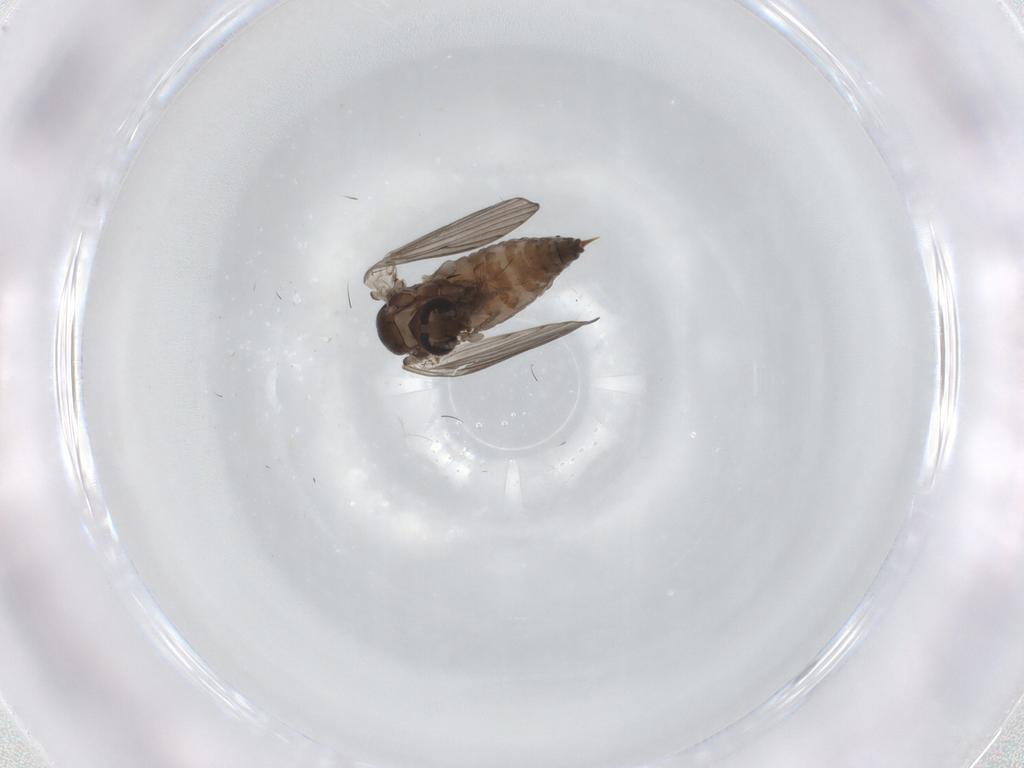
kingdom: Animalia
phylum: Arthropoda
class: Insecta
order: Diptera
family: Psychodidae
